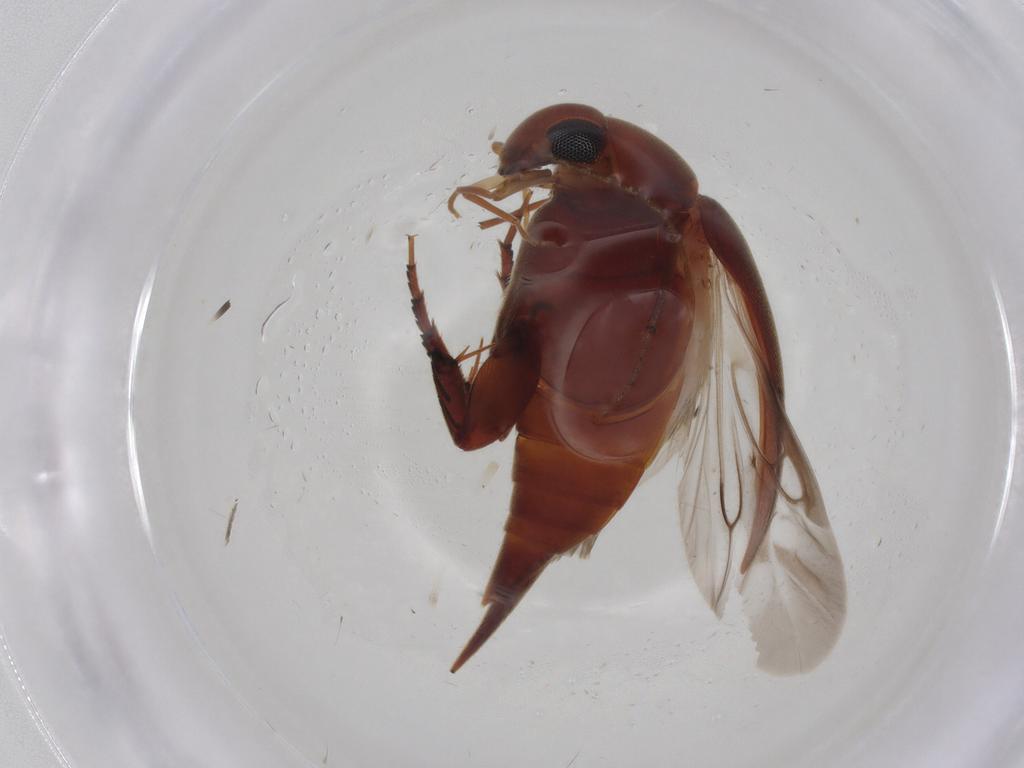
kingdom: Animalia
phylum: Arthropoda
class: Insecta
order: Coleoptera
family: Mordellidae
